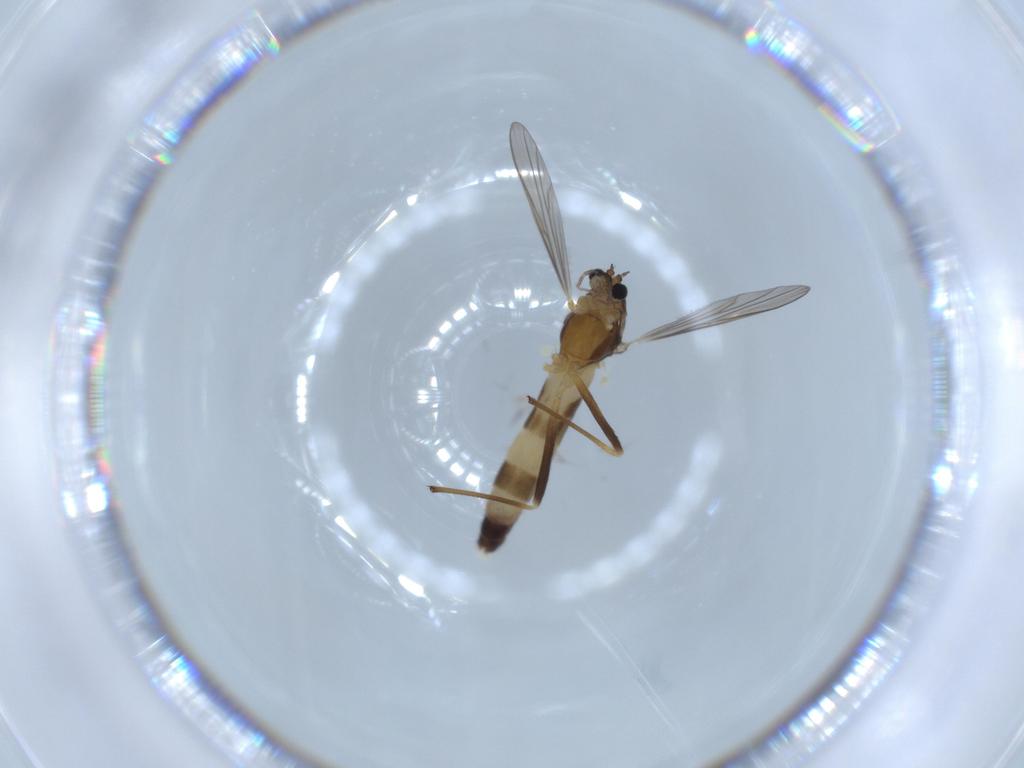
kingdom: Animalia
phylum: Arthropoda
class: Insecta
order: Diptera
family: Chironomidae
